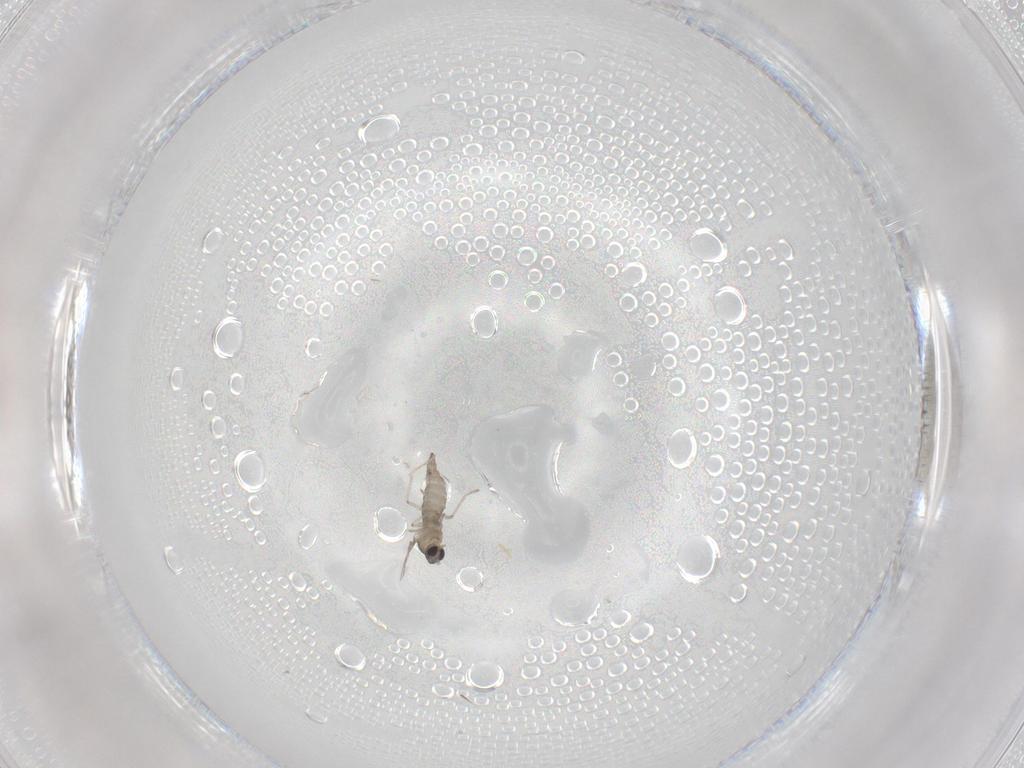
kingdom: Animalia
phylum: Arthropoda
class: Insecta
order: Diptera
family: Cecidomyiidae
